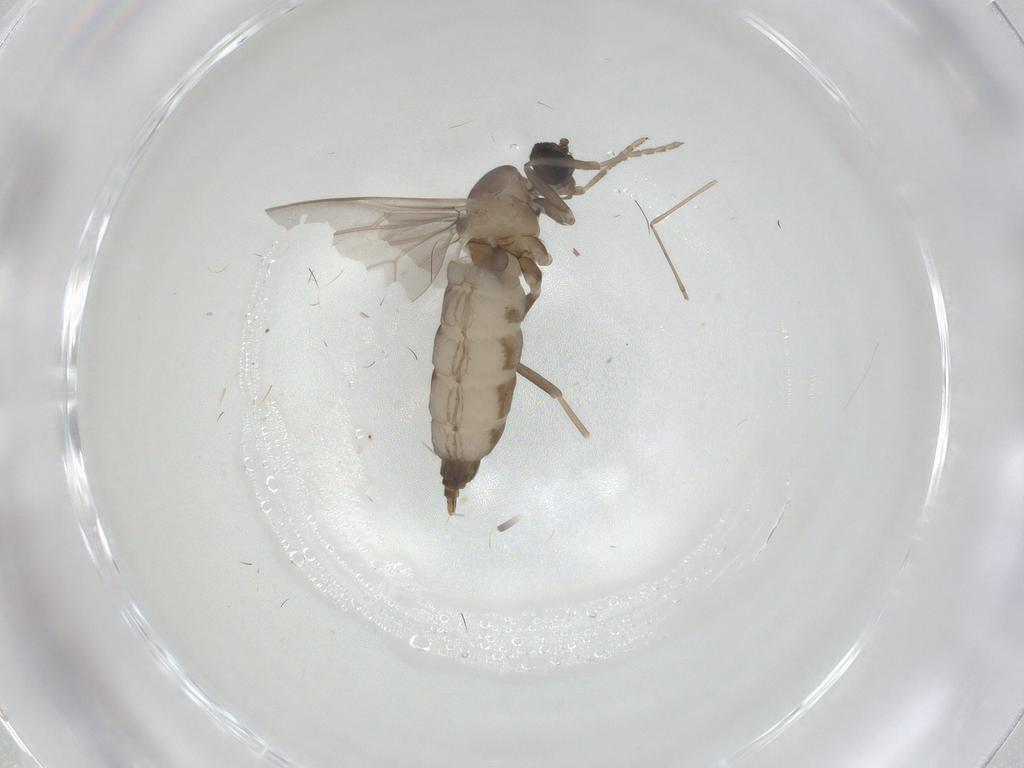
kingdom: Animalia
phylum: Arthropoda
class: Insecta
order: Diptera
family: Cecidomyiidae
